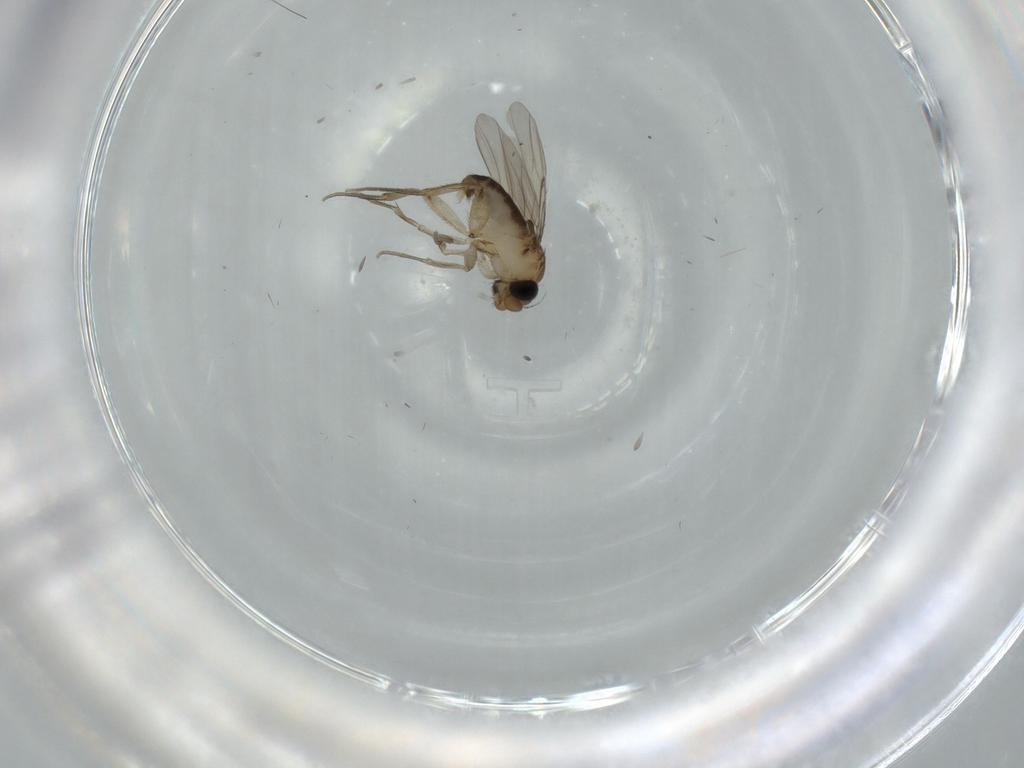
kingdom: Animalia
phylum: Arthropoda
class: Insecta
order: Diptera
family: Phoridae
